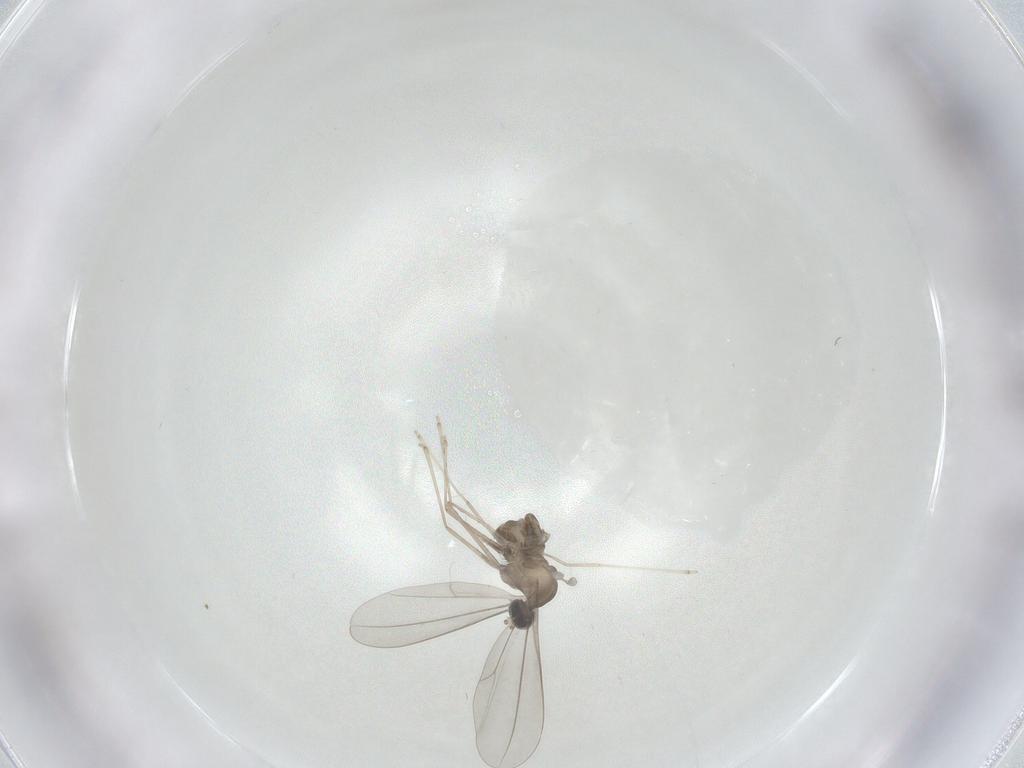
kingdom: Animalia
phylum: Arthropoda
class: Insecta
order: Diptera
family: Cecidomyiidae
